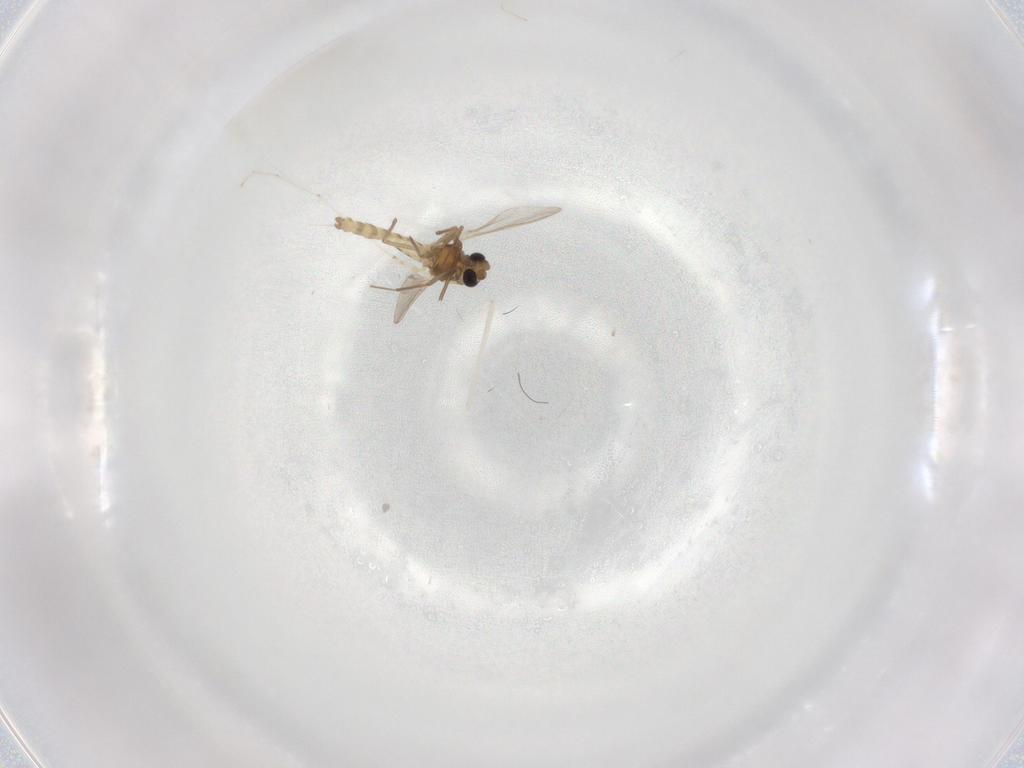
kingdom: Animalia
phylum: Arthropoda
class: Insecta
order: Diptera
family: Chironomidae
